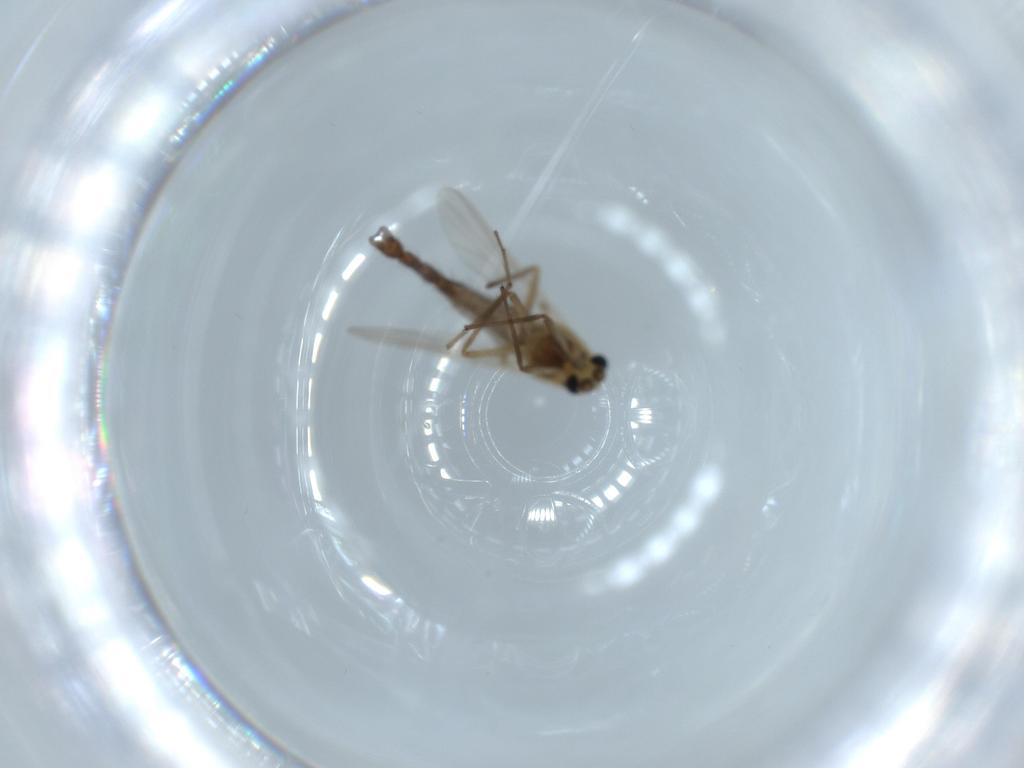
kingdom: Animalia
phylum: Arthropoda
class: Insecta
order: Diptera
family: Chironomidae
